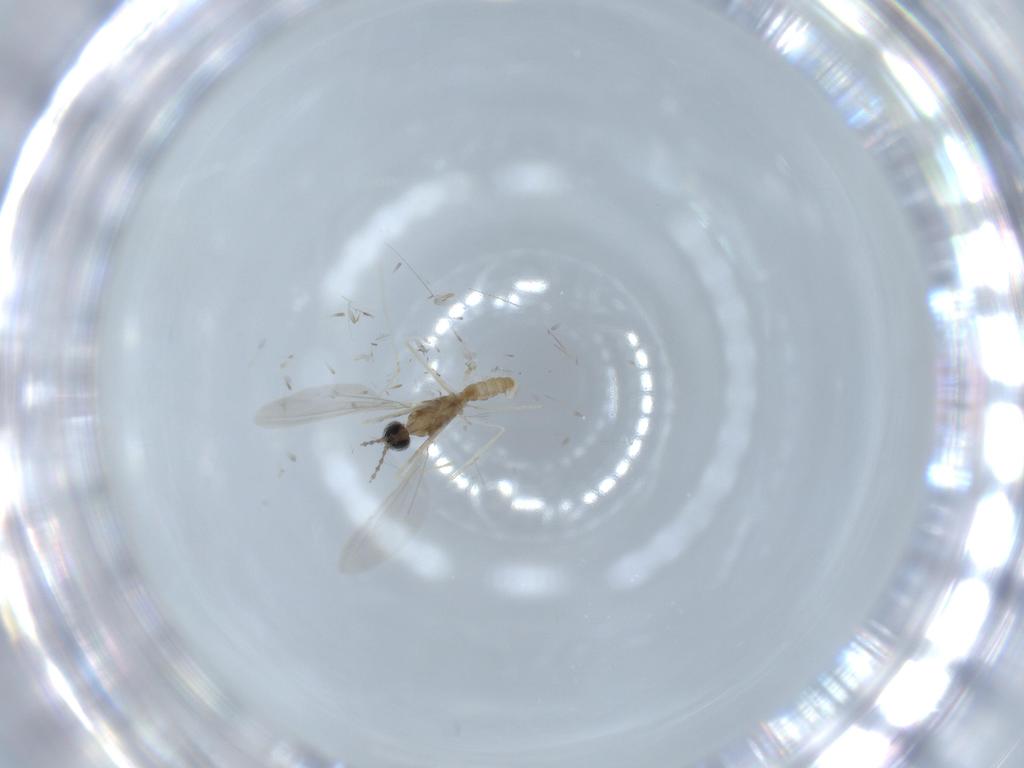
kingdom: Animalia
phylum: Arthropoda
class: Insecta
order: Diptera
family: Cecidomyiidae
